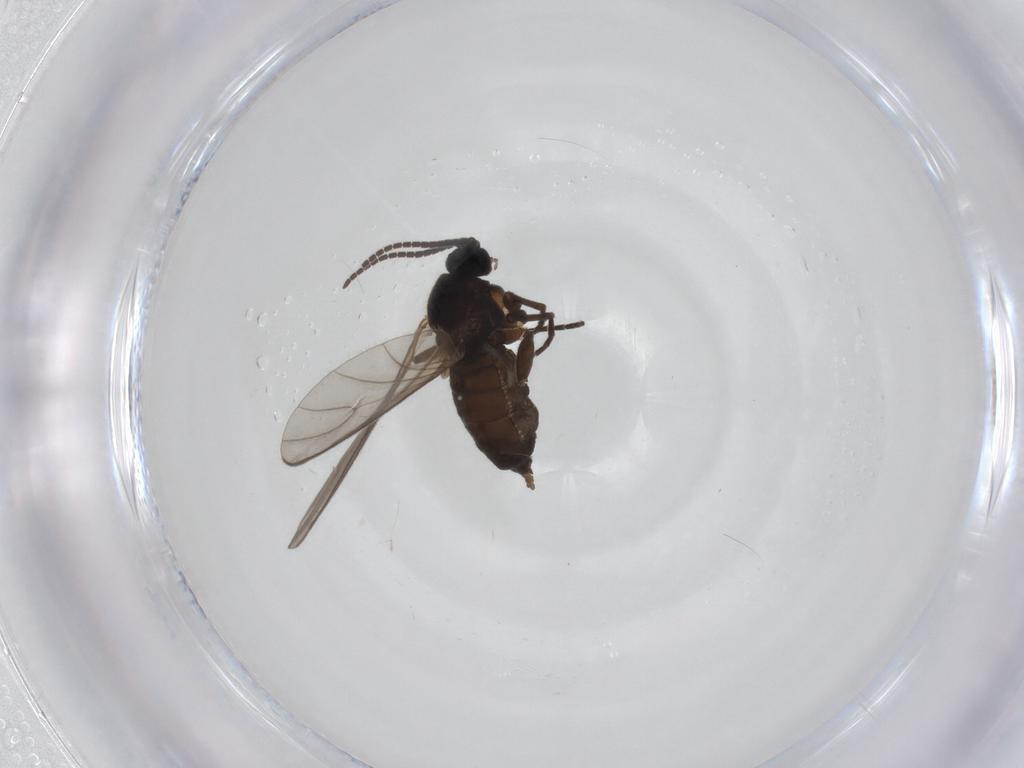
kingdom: Animalia
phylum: Arthropoda
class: Insecta
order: Diptera
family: Sciaridae
